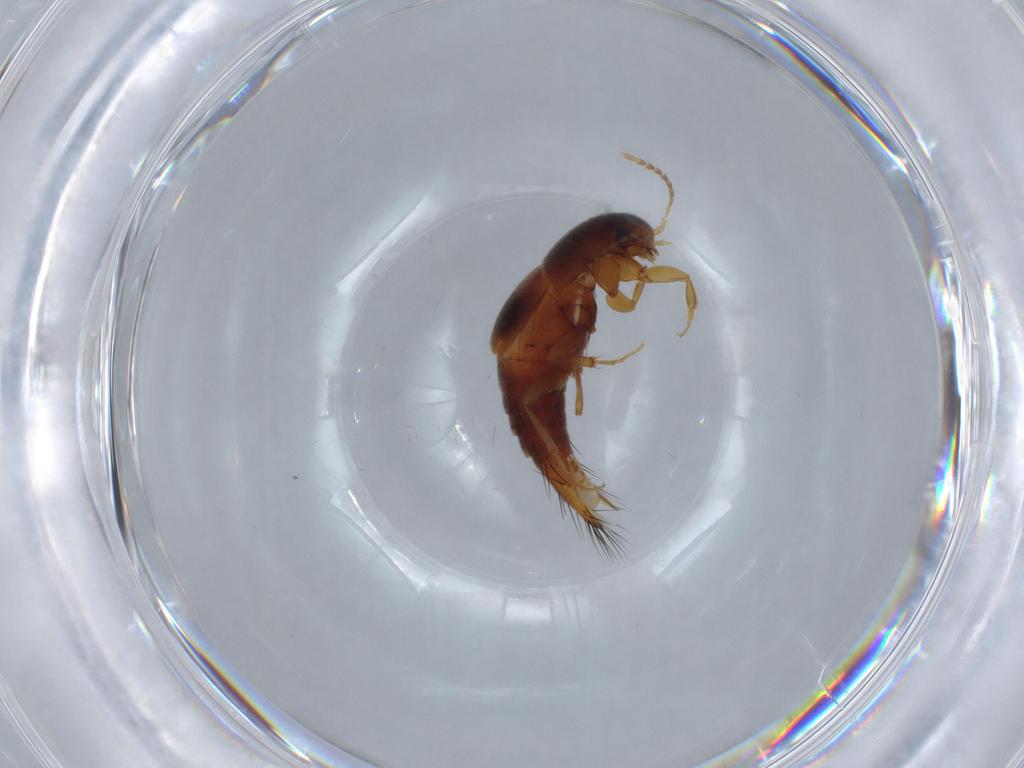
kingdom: Animalia
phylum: Arthropoda
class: Insecta
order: Coleoptera
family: Staphylinidae
